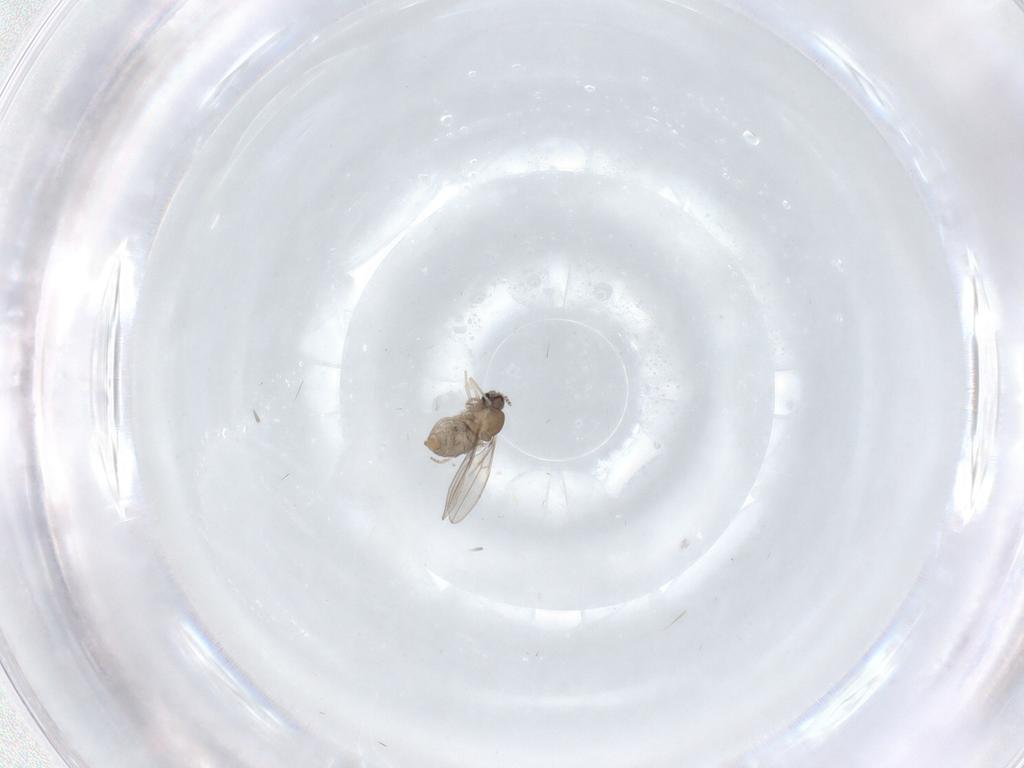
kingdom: Animalia
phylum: Arthropoda
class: Insecta
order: Diptera
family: Cecidomyiidae
